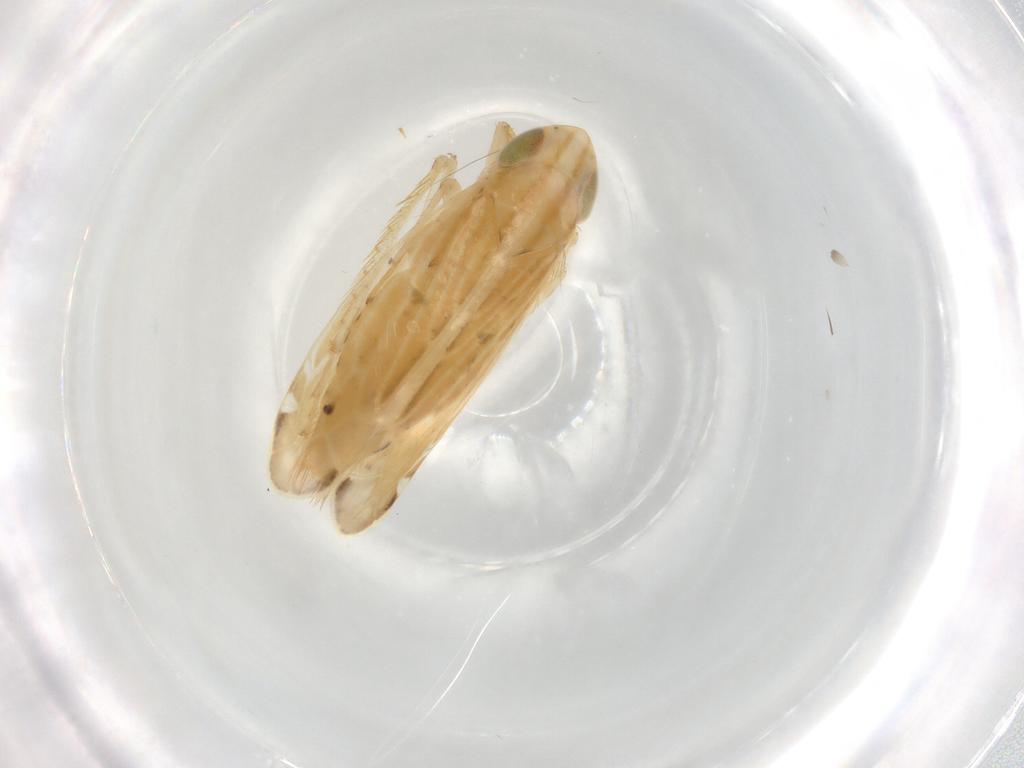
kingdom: Animalia
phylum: Arthropoda
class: Insecta
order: Hemiptera
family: Cicadellidae
